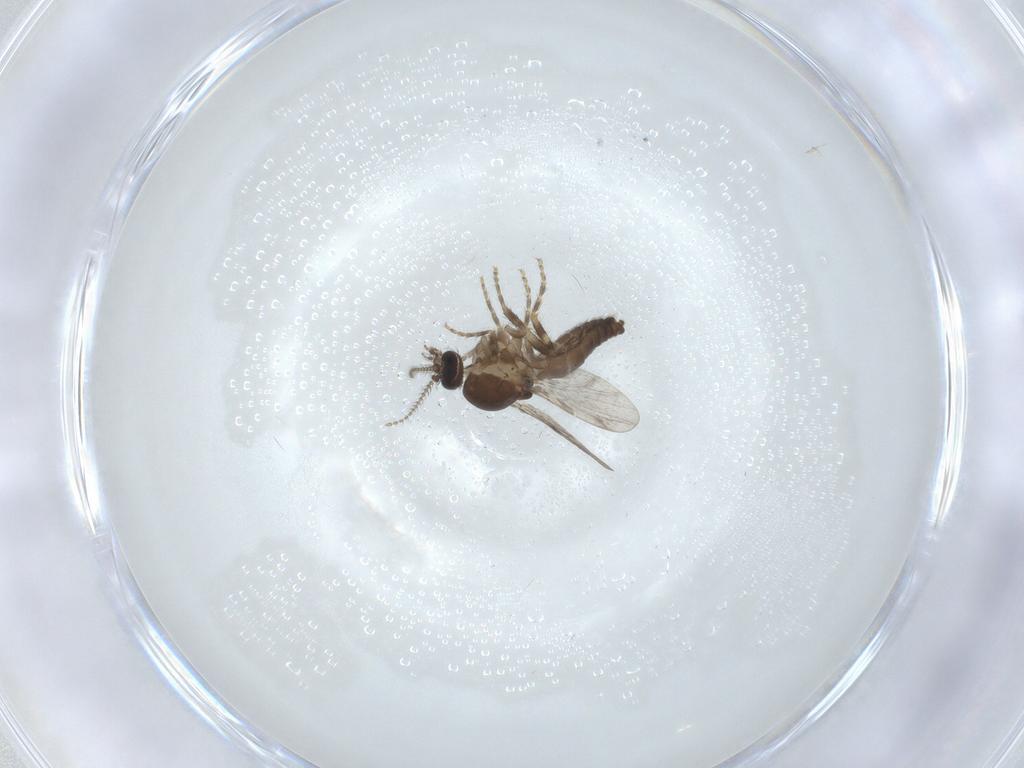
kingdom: Animalia
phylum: Arthropoda
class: Insecta
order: Diptera
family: Ceratopogonidae
